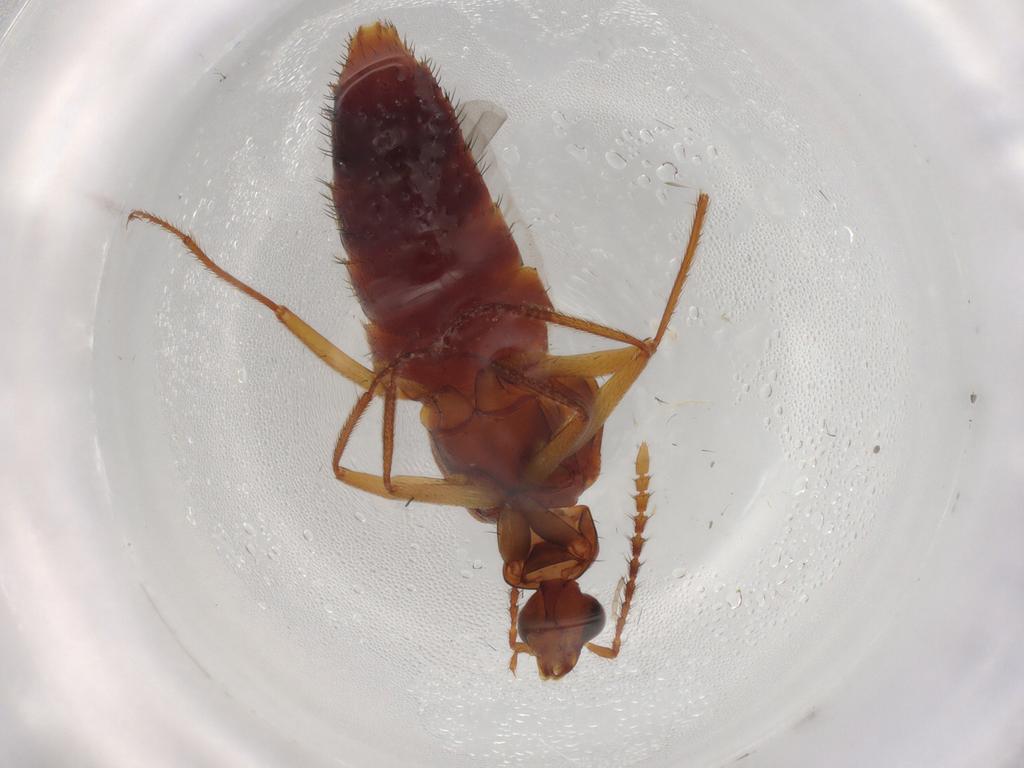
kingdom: Animalia
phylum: Arthropoda
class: Insecta
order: Coleoptera
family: Staphylinidae
